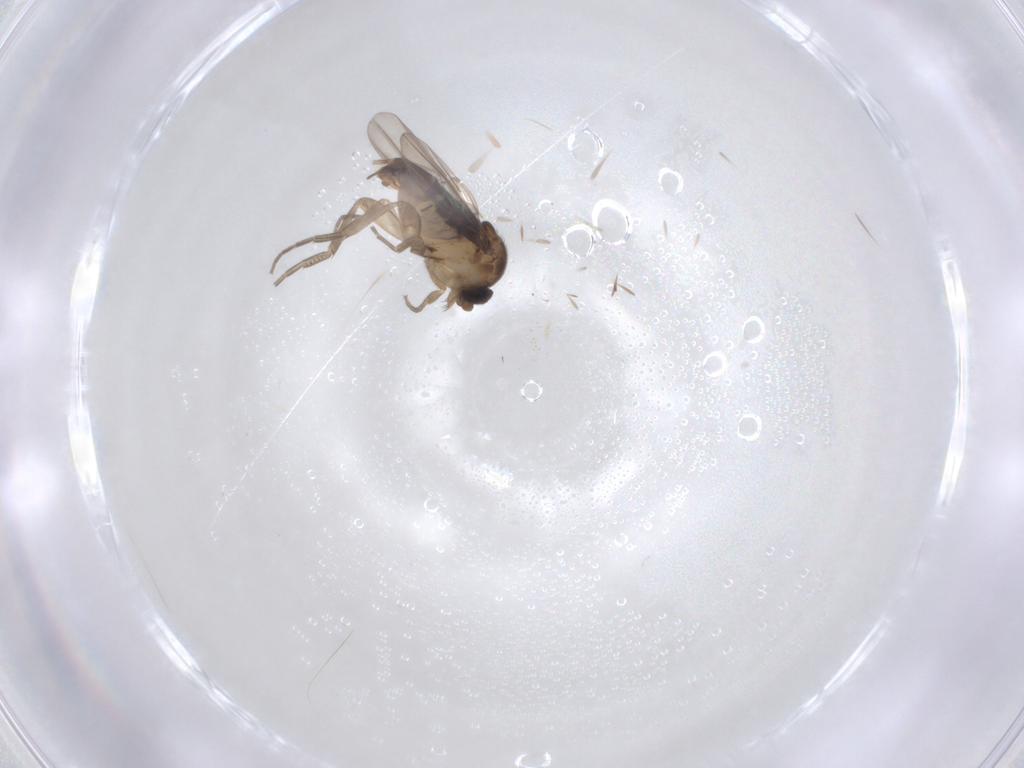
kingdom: Animalia
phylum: Arthropoda
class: Insecta
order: Diptera
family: Phoridae
